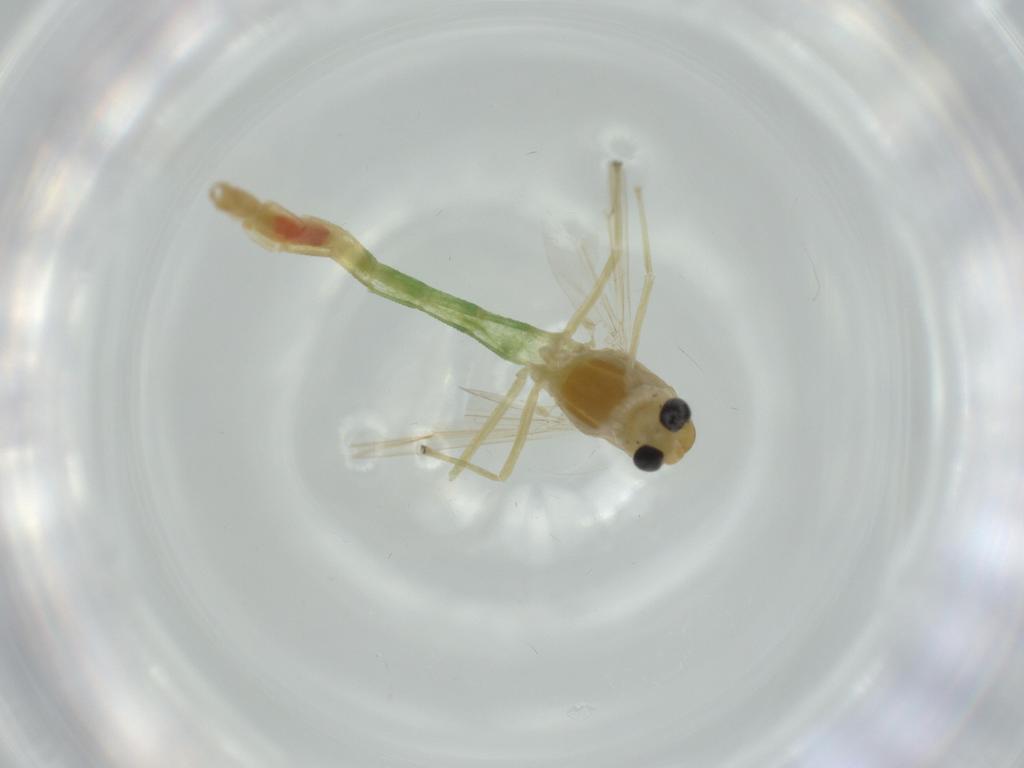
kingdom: Animalia
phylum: Arthropoda
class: Insecta
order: Diptera
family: Chironomidae
